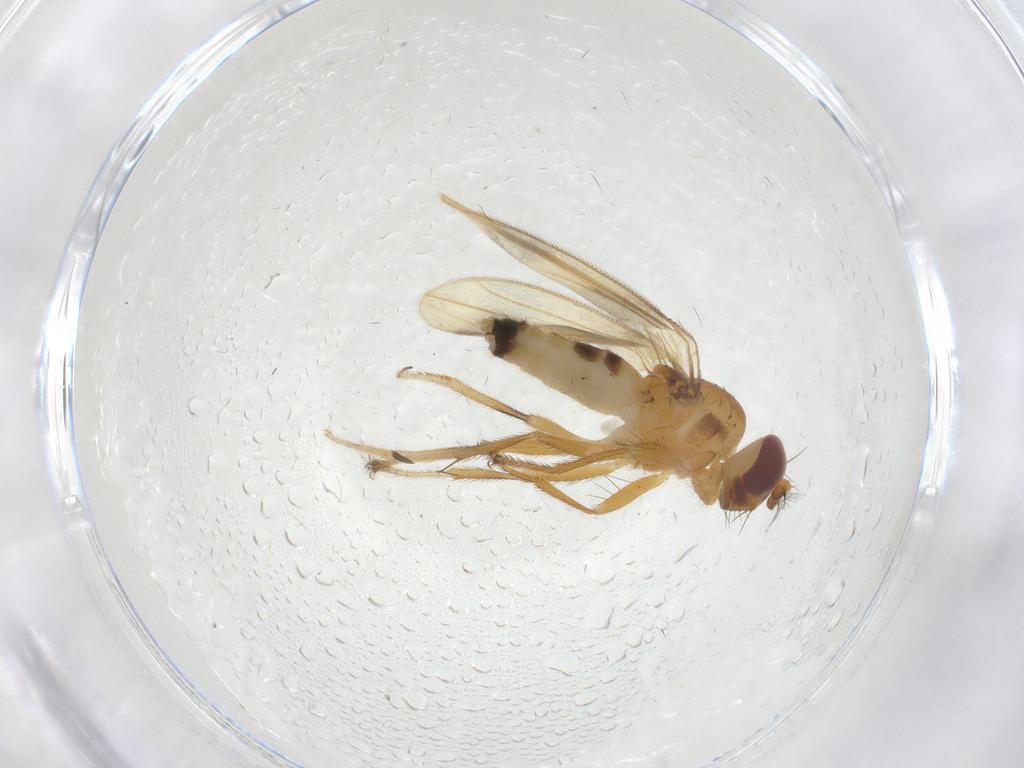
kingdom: Animalia
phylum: Arthropoda
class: Insecta
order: Diptera
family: Periscelididae
